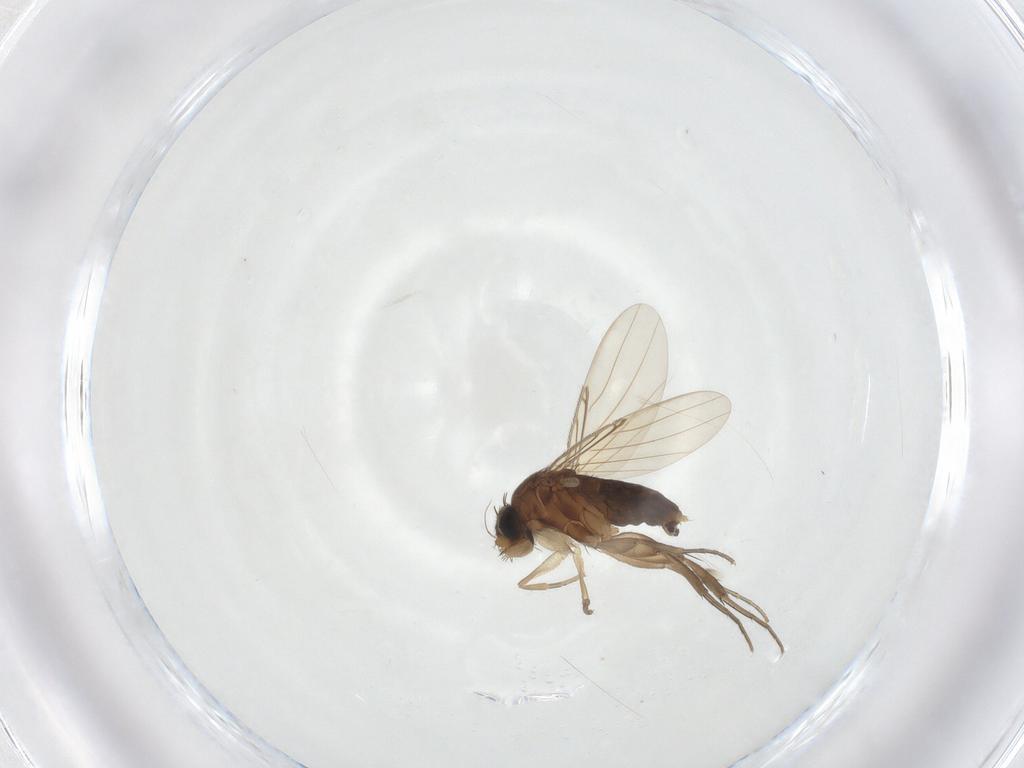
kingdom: Animalia
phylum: Arthropoda
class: Insecta
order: Diptera
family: Phoridae
